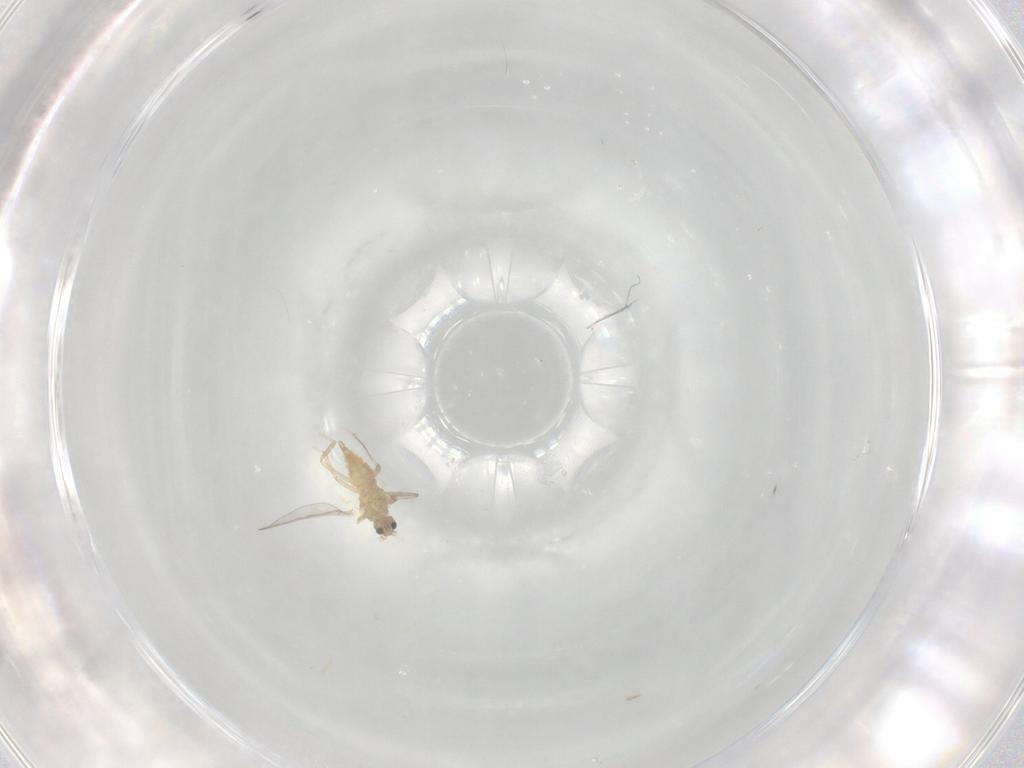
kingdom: Animalia
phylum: Arthropoda
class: Insecta
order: Diptera
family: Cecidomyiidae
